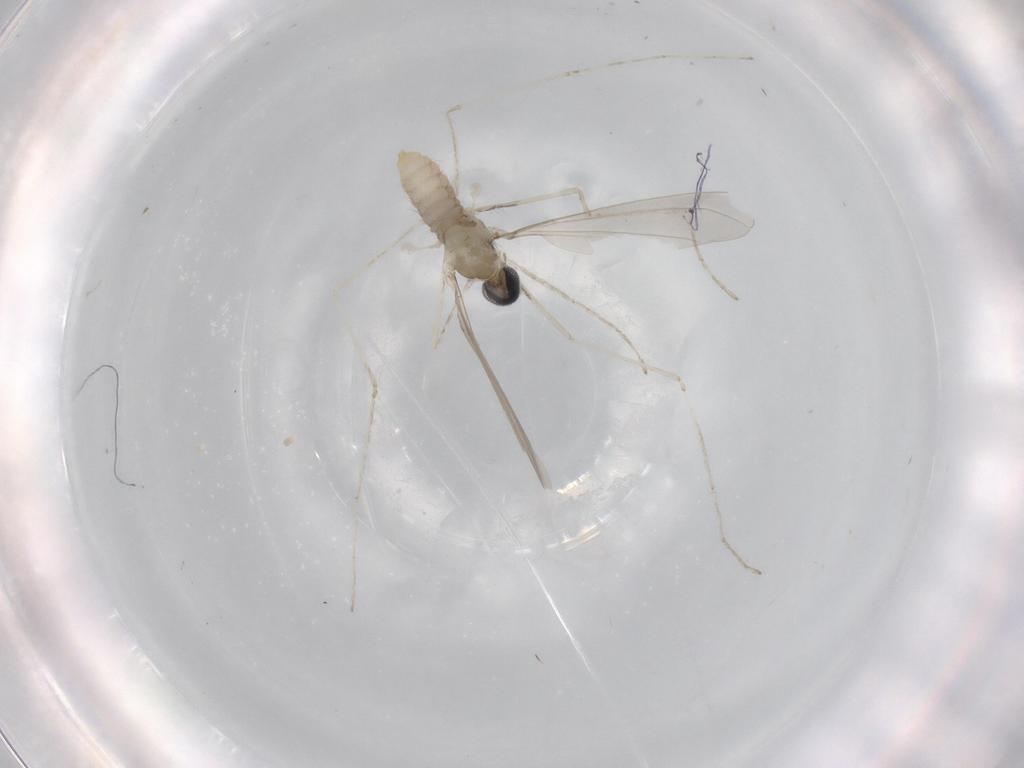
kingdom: Animalia
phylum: Arthropoda
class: Insecta
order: Diptera
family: Cecidomyiidae
